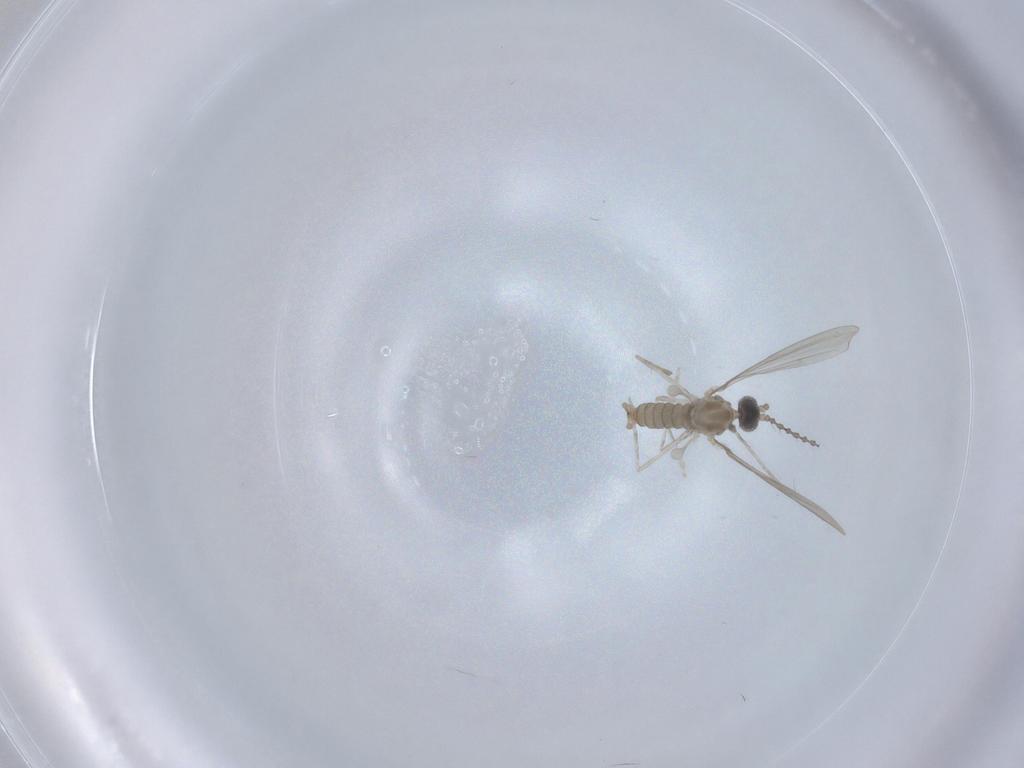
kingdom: Animalia
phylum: Arthropoda
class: Insecta
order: Diptera
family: Cecidomyiidae
